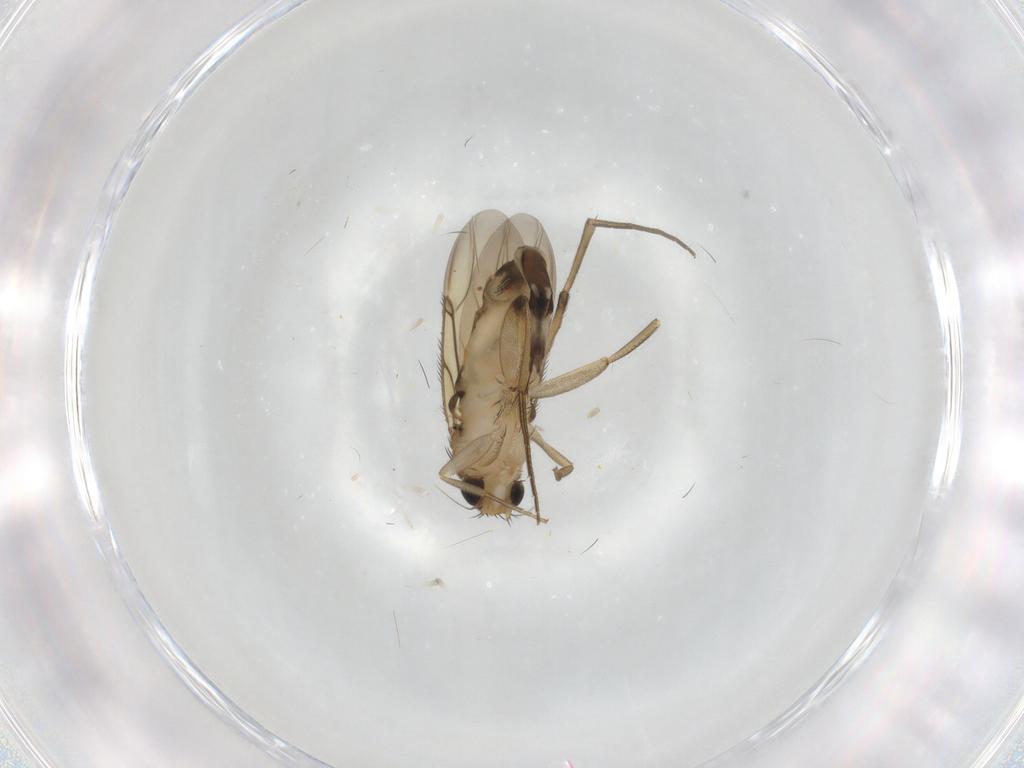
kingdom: Animalia
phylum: Arthropoda
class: Insecta
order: Diptera
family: Phoridae
